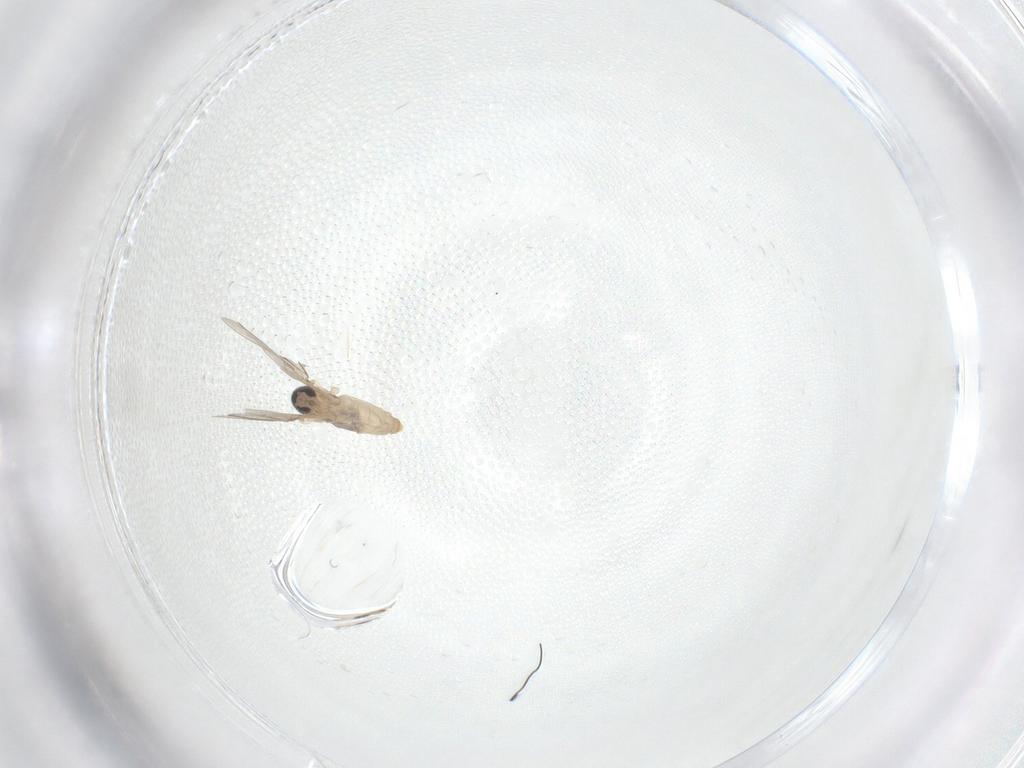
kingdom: Animalia
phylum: Arthropoda
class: Insecta
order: Diptera
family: Cecidomyiidae
